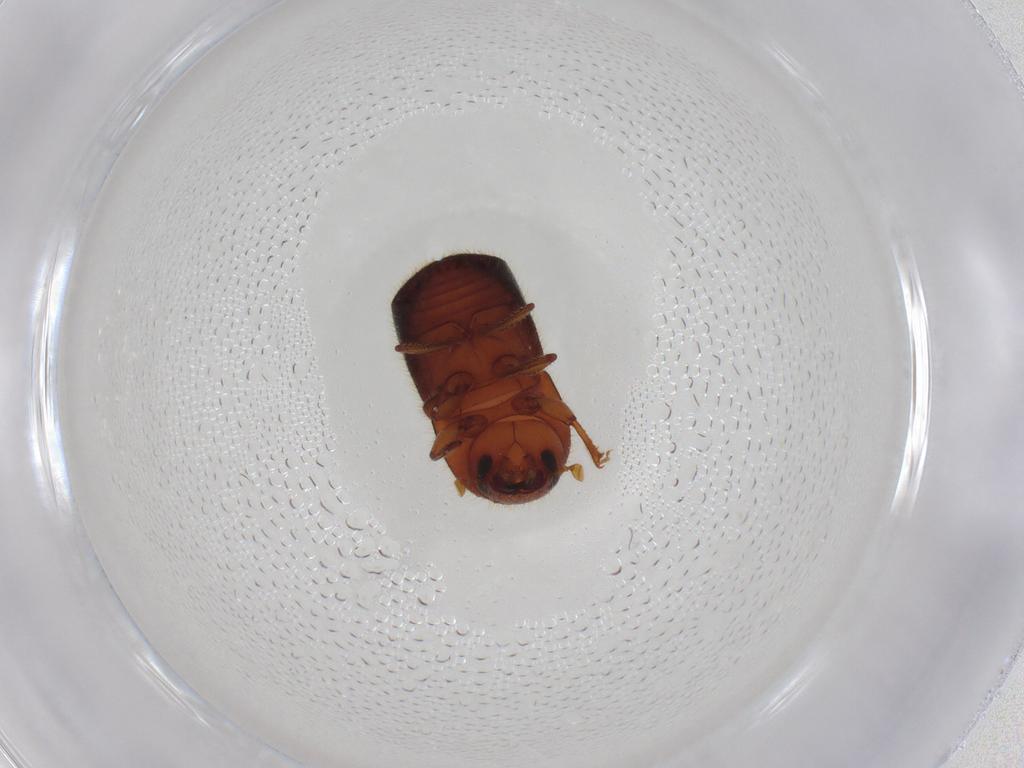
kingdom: Animalia
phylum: Arthropoda
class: Insecta
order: Coleoptera
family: Curculionidae
